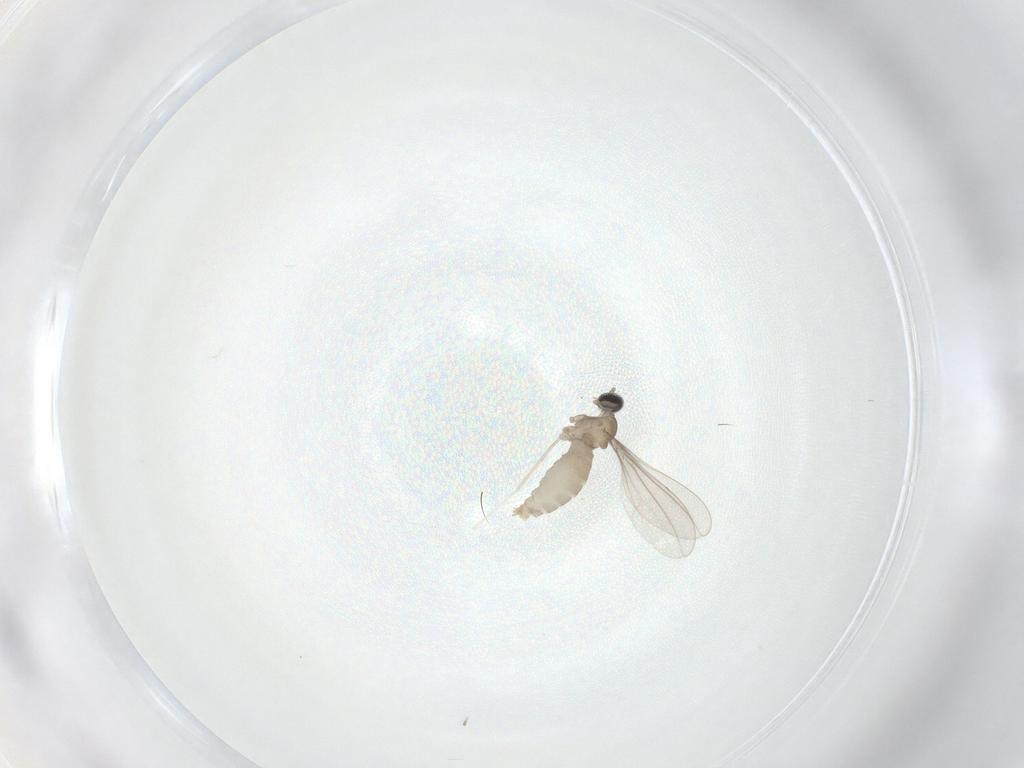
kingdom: Animalia
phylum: Arthropoda
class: Insecta
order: Diptera
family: Cecidomyiidae
